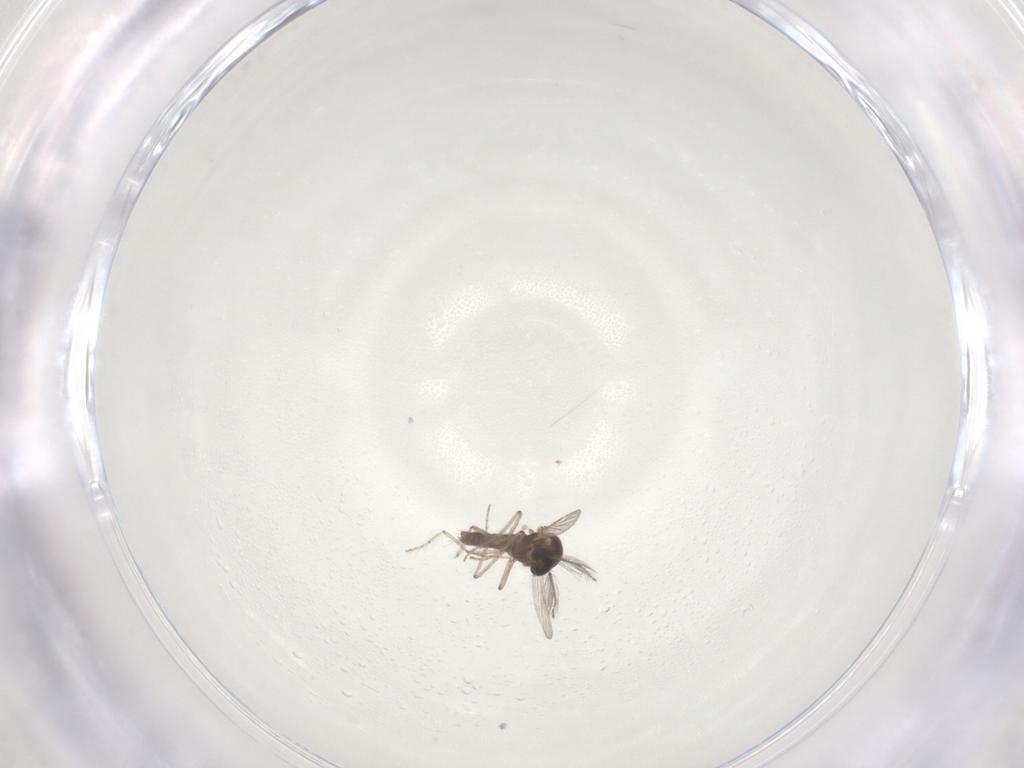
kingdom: Animalia
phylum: Arthropoda
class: Insecta
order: Diptera
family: Ceratopogonidae
